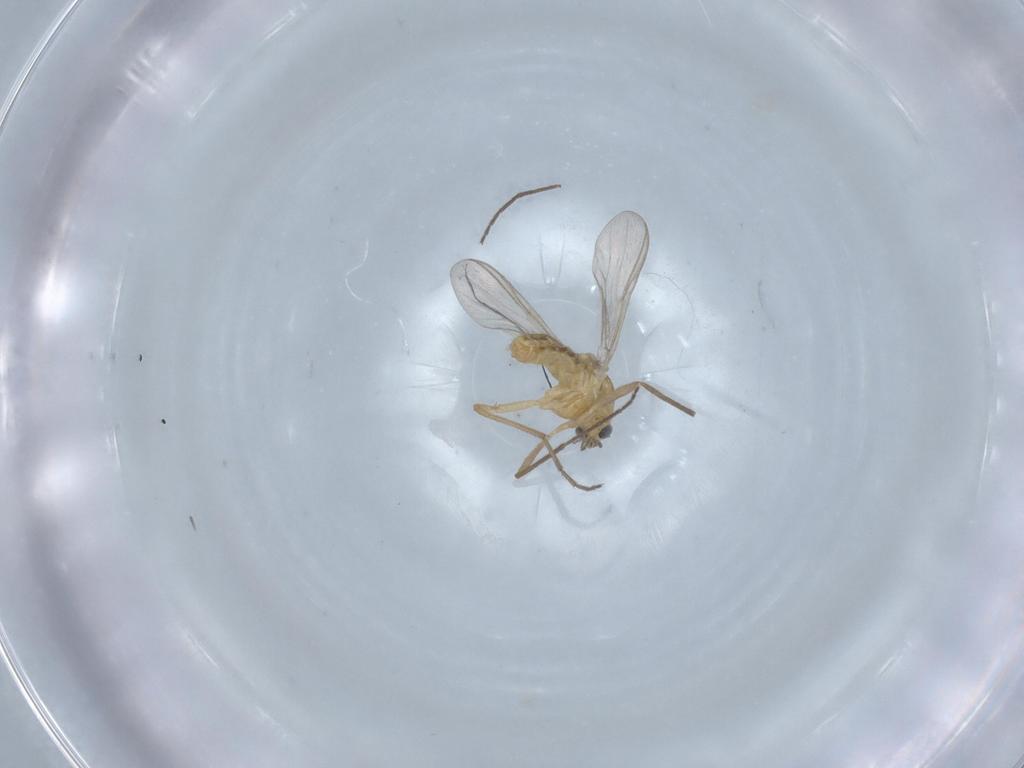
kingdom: Animalia
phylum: Arthropoda
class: Insecta
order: Diptera
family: Chironomidae
